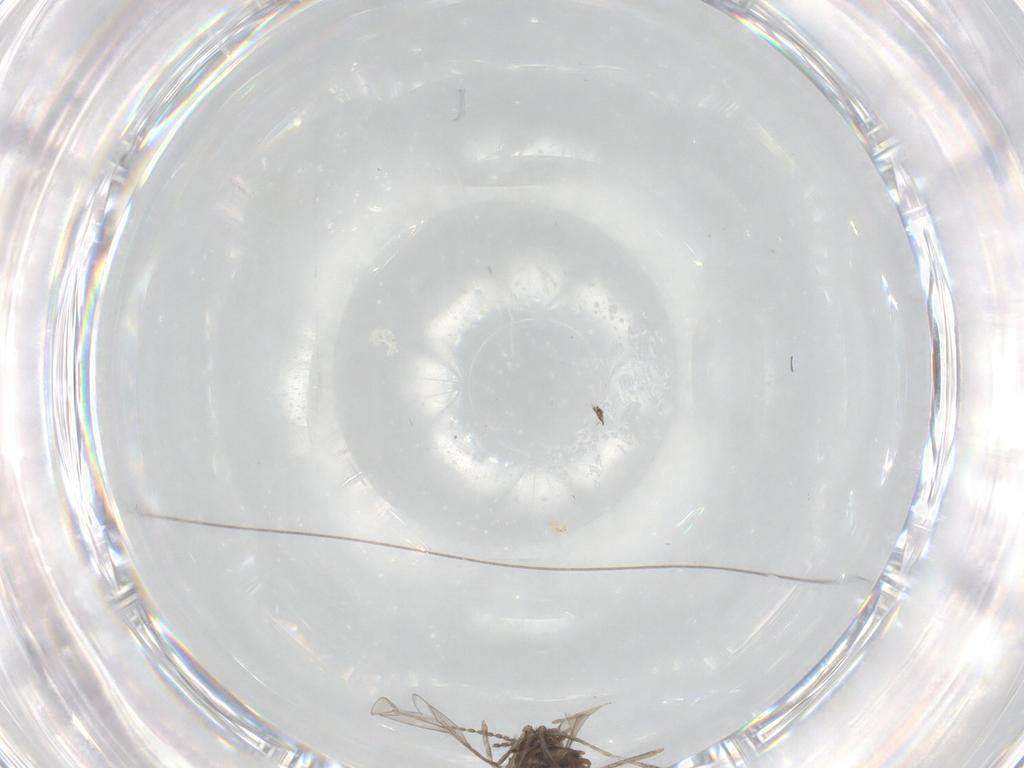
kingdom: Animalia
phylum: Arthropoda
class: Insecta
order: Diptera
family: Cecidomyiidae
